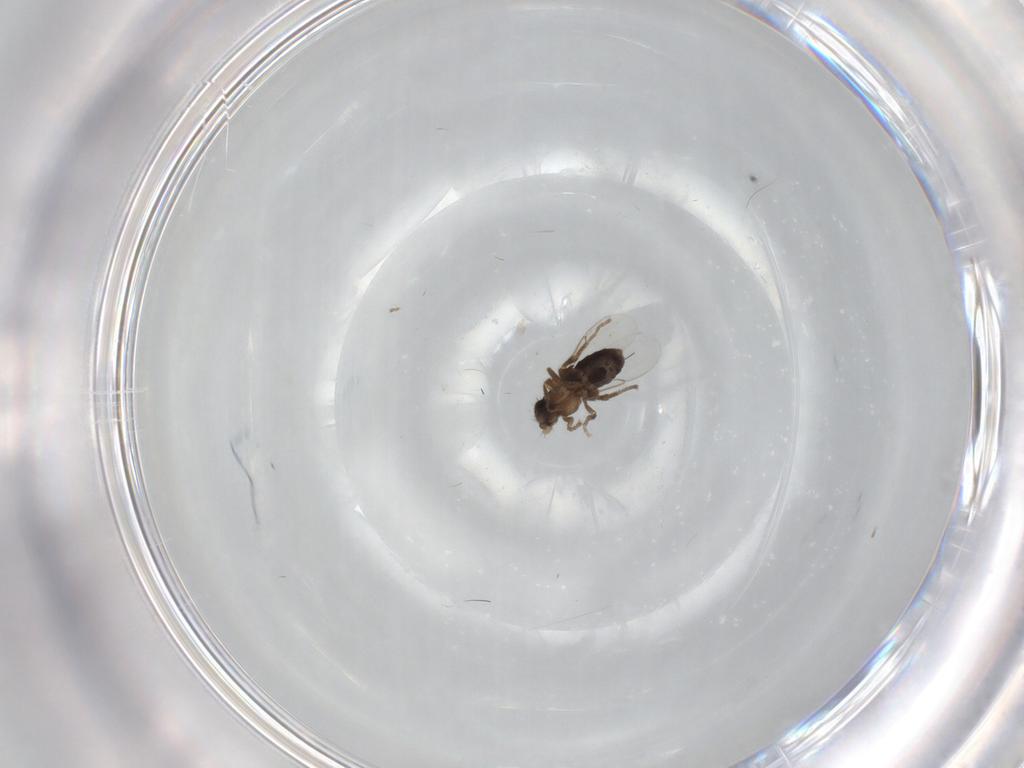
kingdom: Animalia
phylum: Arthropoda
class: Insecta
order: Diptera
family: Phoridae
